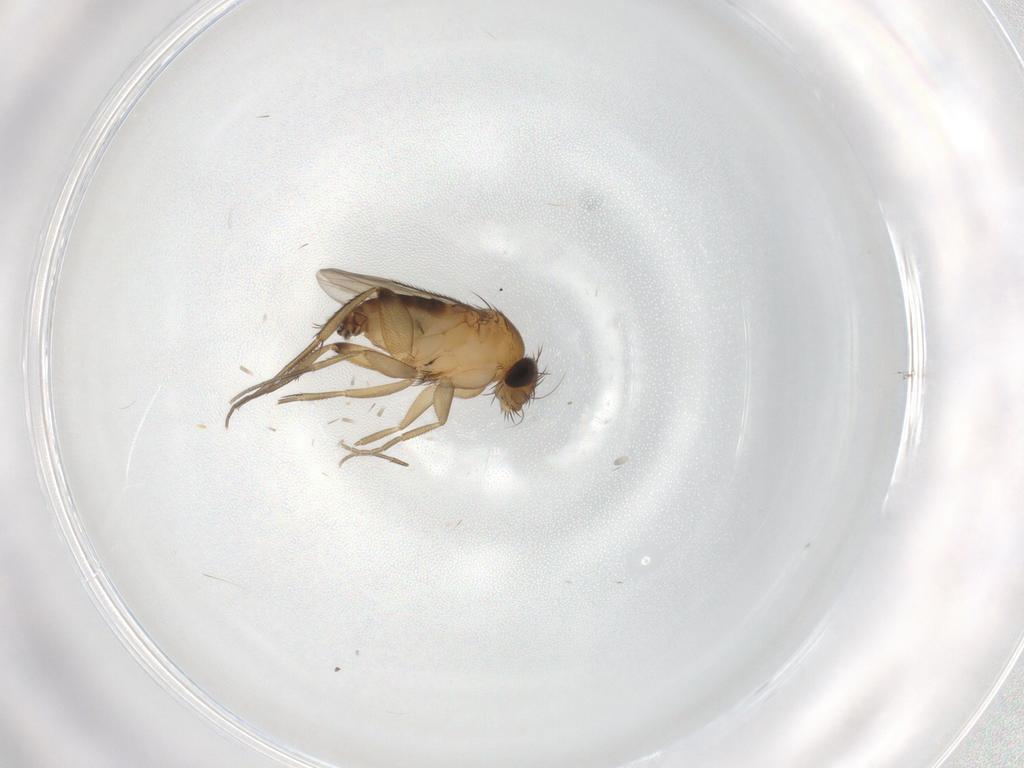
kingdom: Animalia
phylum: Arthropoda
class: Insecta
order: Diptera
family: Phoridae
